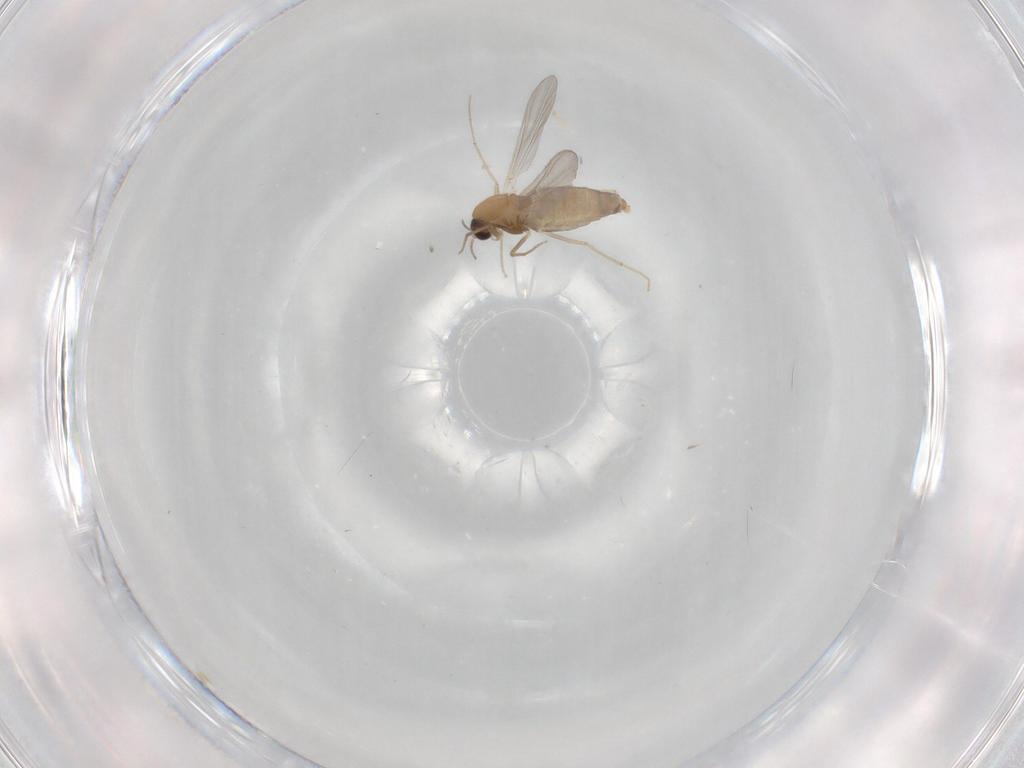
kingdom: Animalia
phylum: Arthropoda
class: Insecta
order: Diptera
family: Chironomidae
